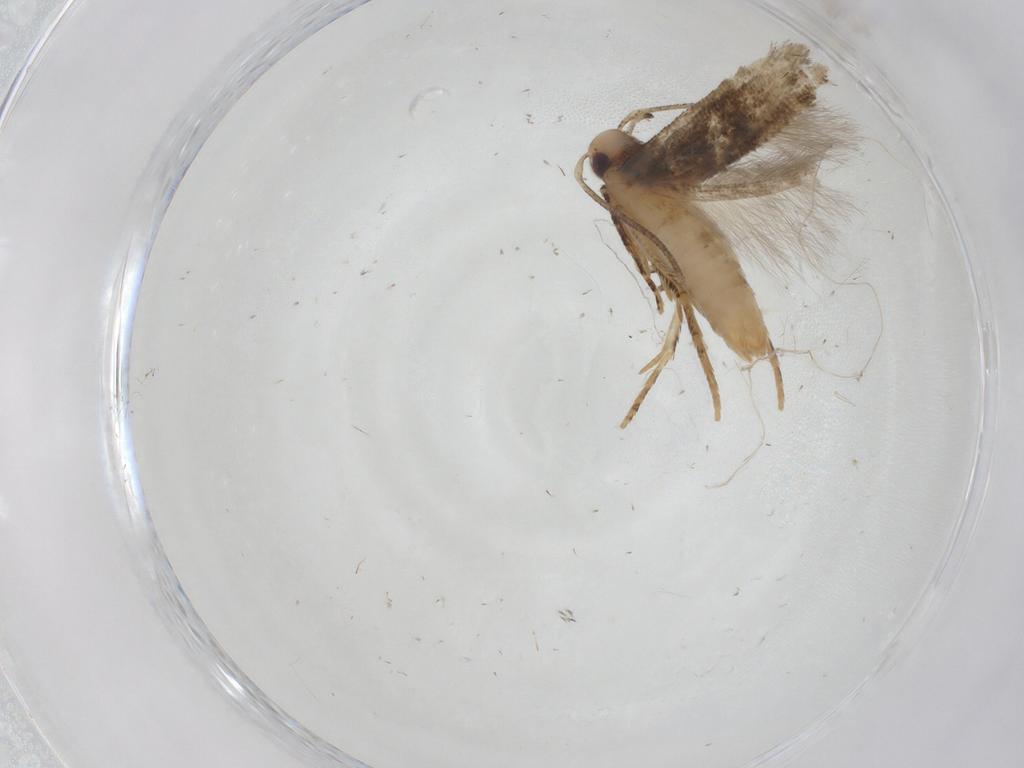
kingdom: Animalia
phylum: Arthropoda
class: Insecta
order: Lepidoptera
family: Cosmopterigidae
